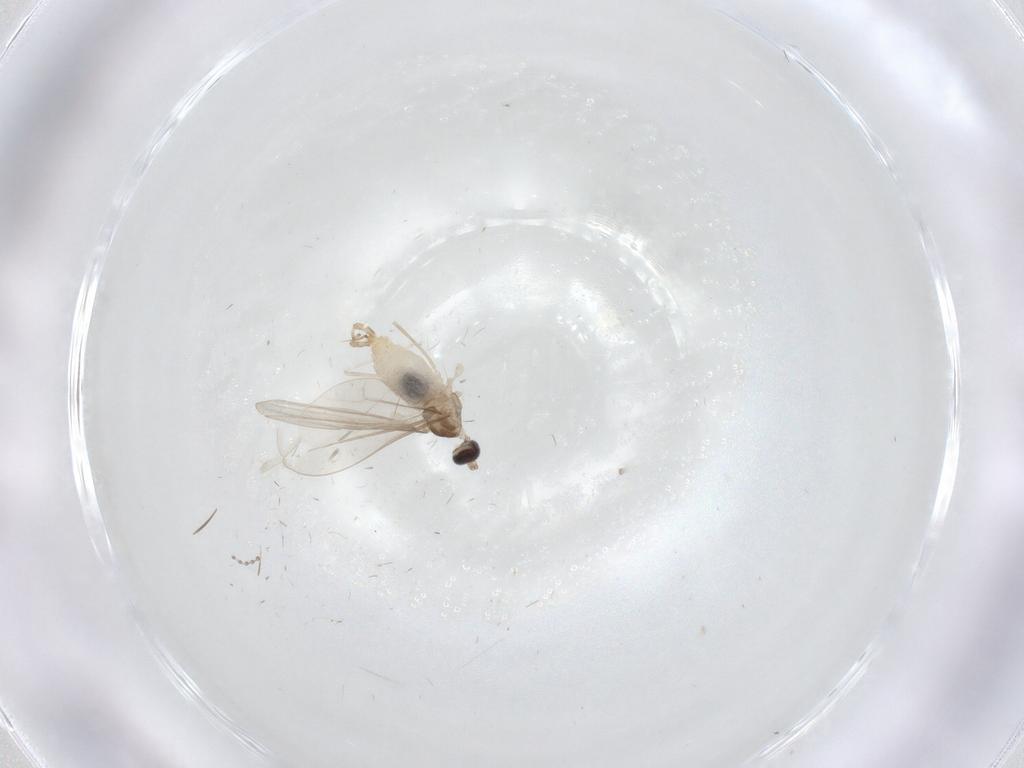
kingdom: Animalia
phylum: Arthropoda
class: Insecta
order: Diptera
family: Cecidomyiidae
